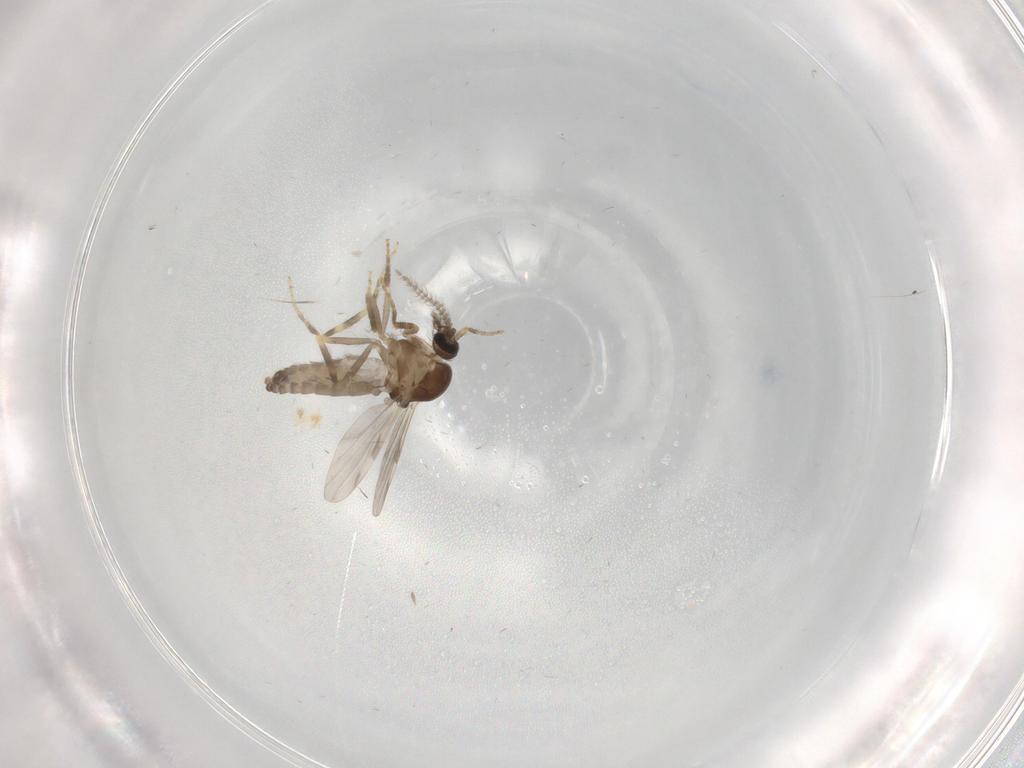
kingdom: Animalia
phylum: Arthropoda
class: Insecta
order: Diptera
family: Ceratopogonidae
